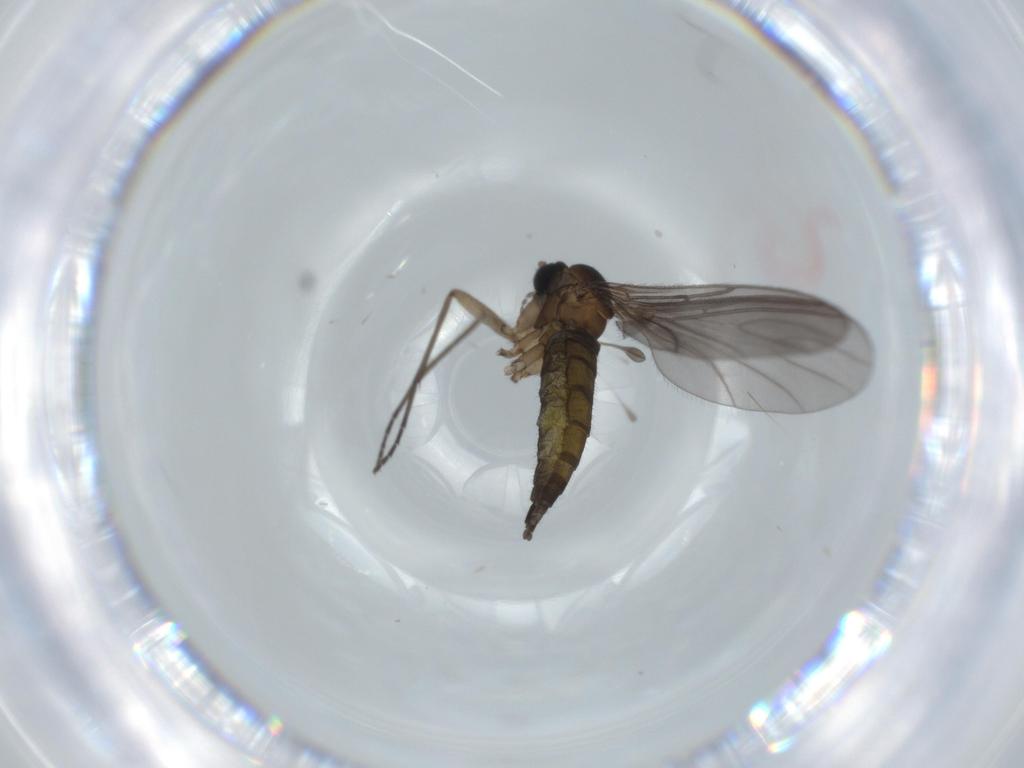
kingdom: Animalia
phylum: Arthropoda
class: Insecta
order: Diptera
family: Sciaridae
